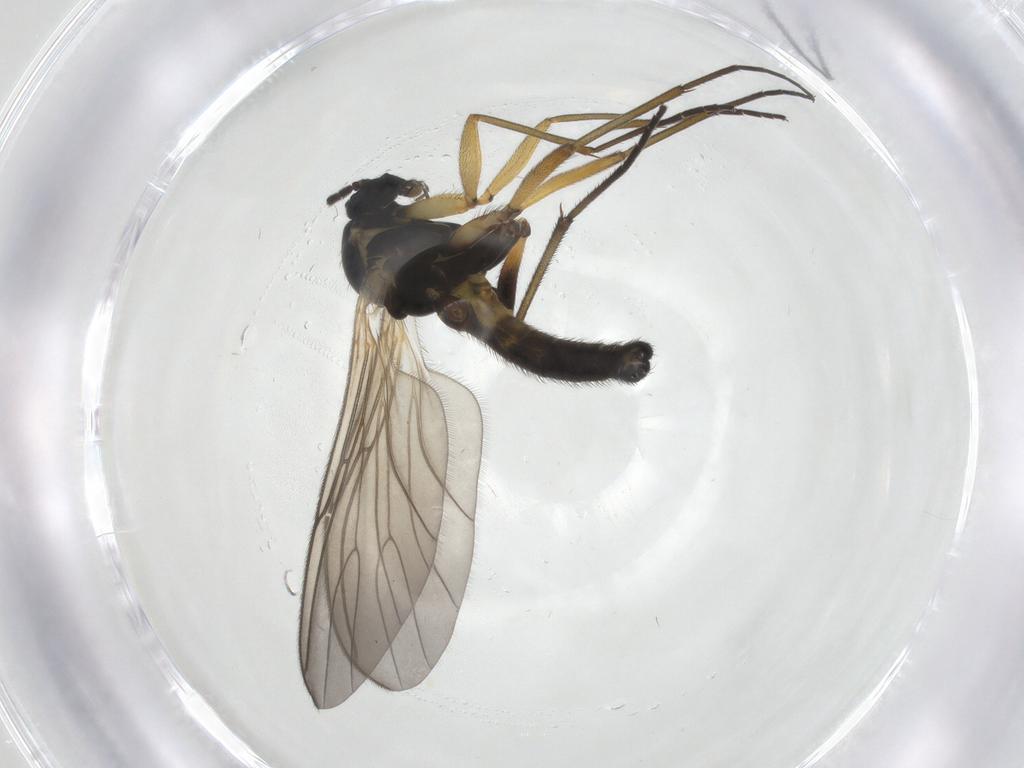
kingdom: Animalia
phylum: Arthropoda
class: Insecta
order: Diptera
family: Sciaridae
